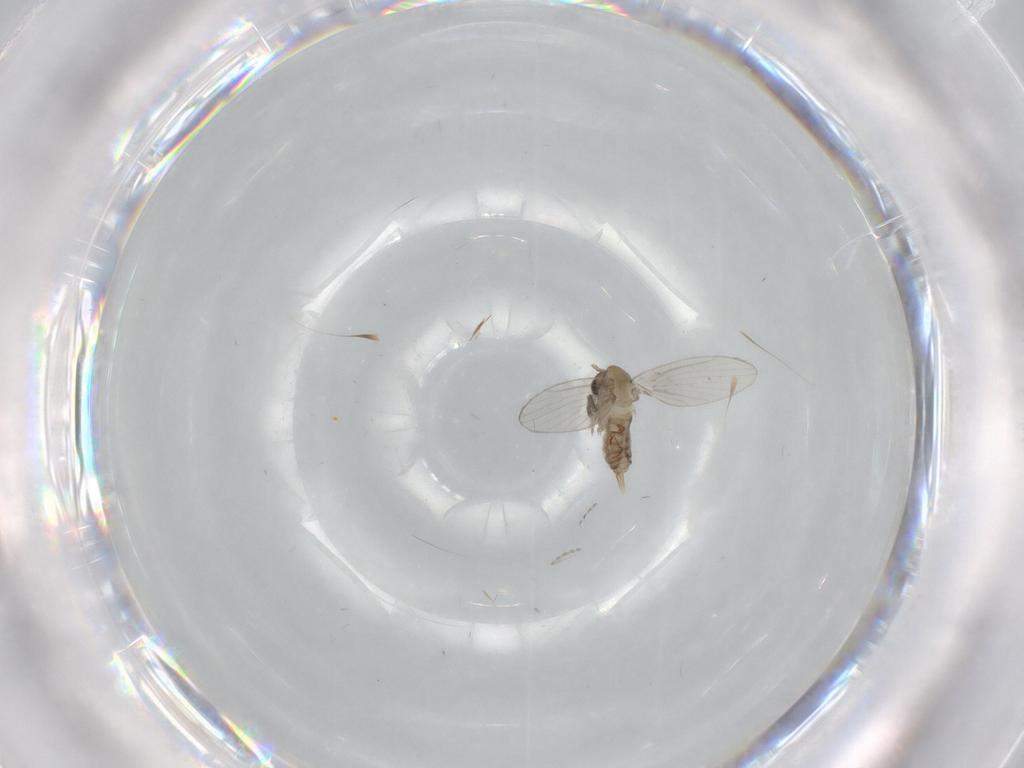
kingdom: Animalia
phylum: Arthropoda
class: Insecta
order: Diptera
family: Psychodidae
